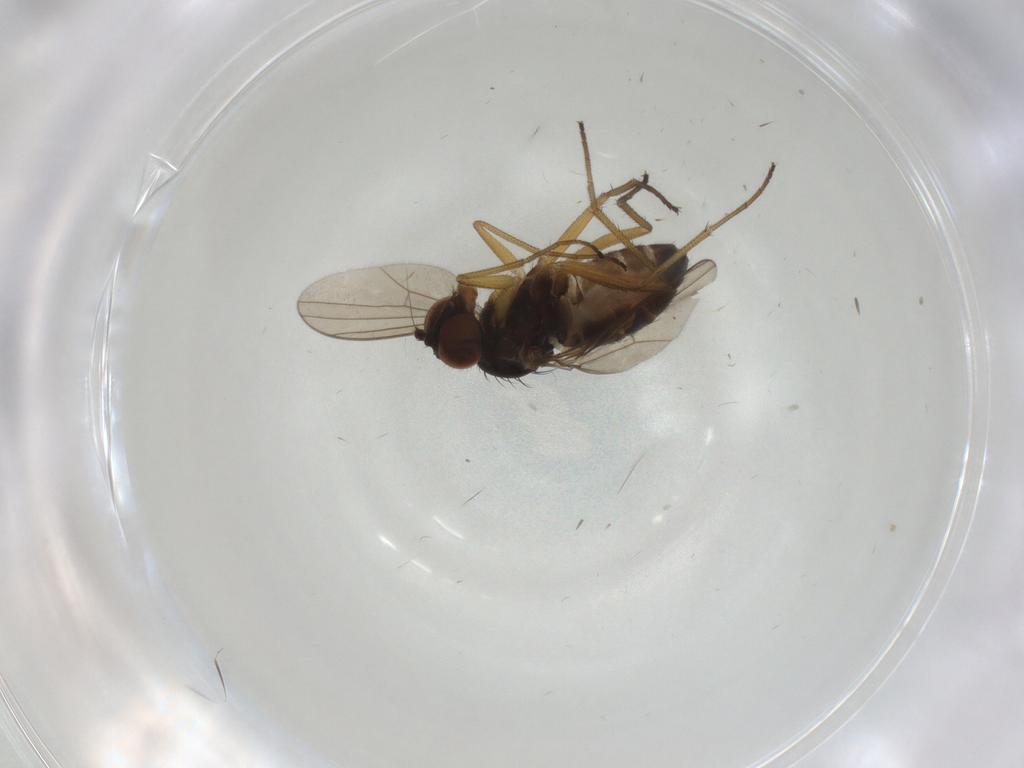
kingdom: Animalia
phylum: Arthropoda
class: Insecta
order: Diptera
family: Dolichopodidae
